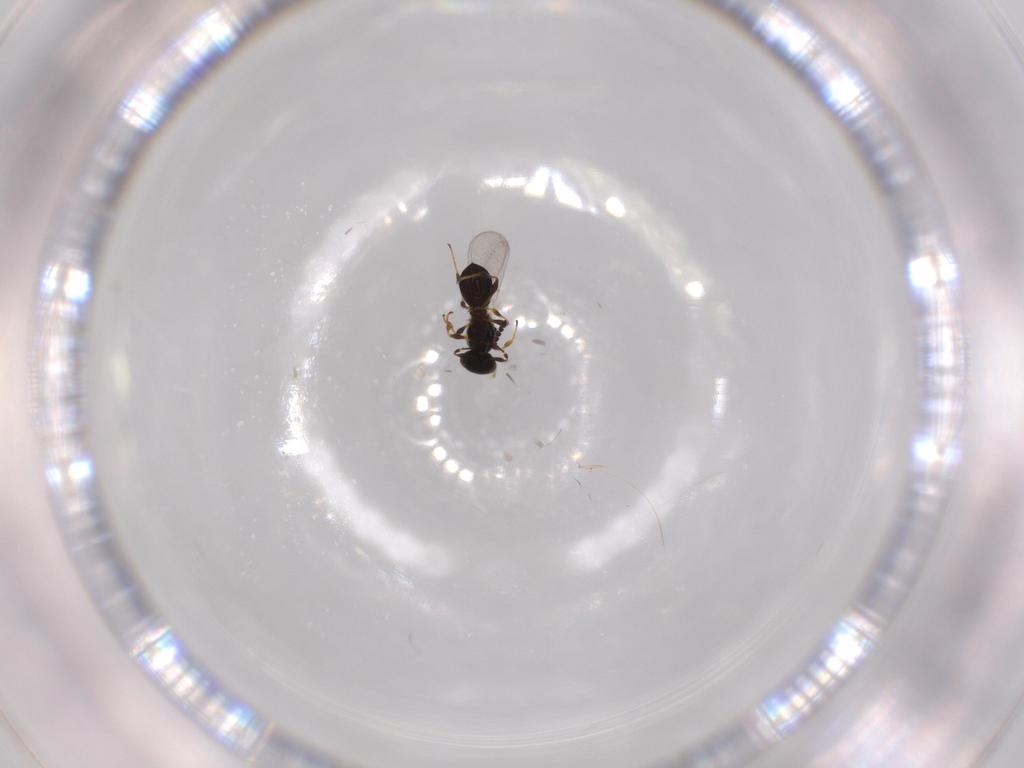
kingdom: Animalia
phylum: Arthropoda
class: Insecta
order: Hymenoptera
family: Platygastridae
